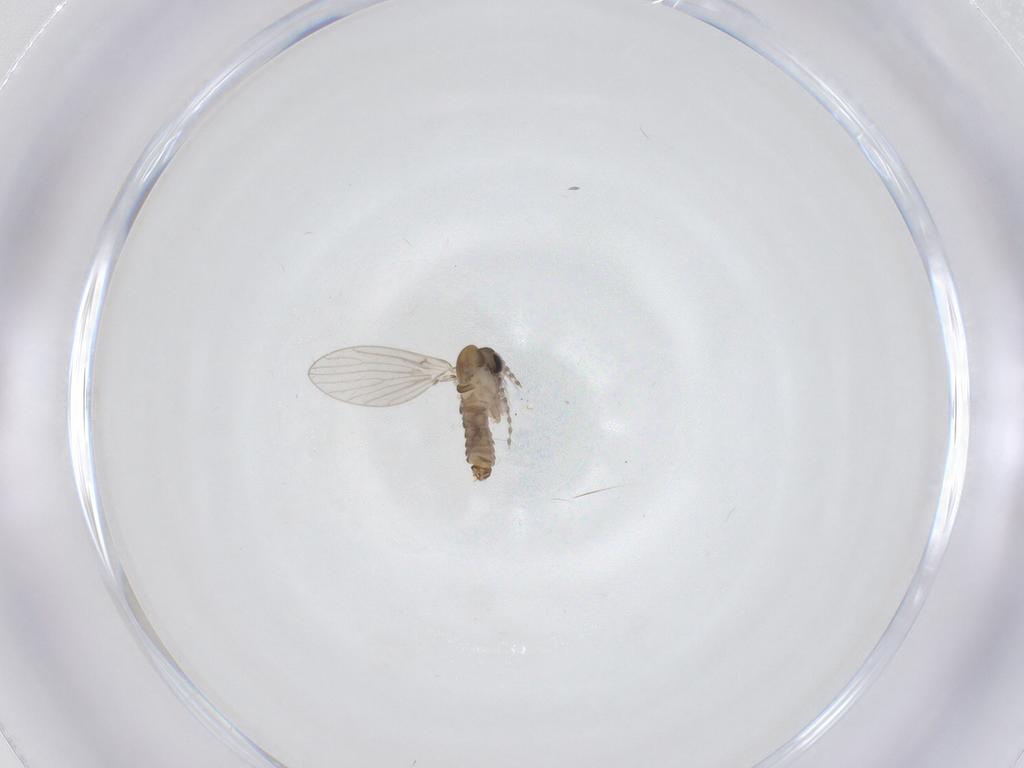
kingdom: Animalia
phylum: Arthropoda
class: Insecta
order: Diptera
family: Psychodidae
